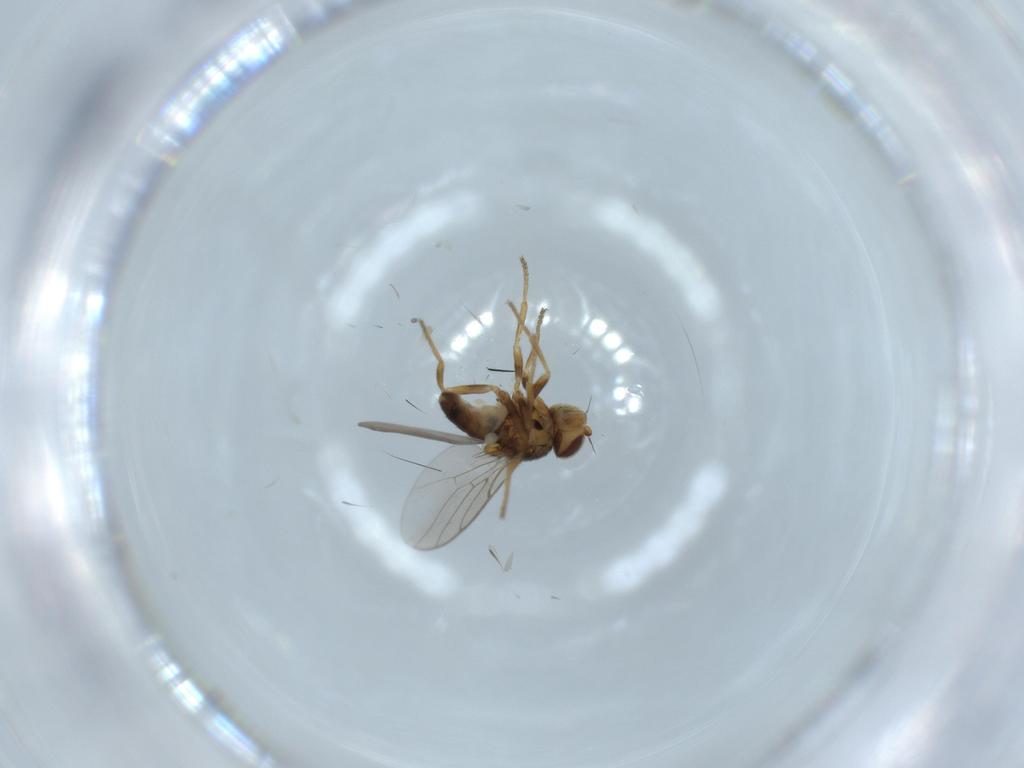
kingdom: Animalia
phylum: Arthropoda
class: Insecta
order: Diptera
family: Chloropidae
